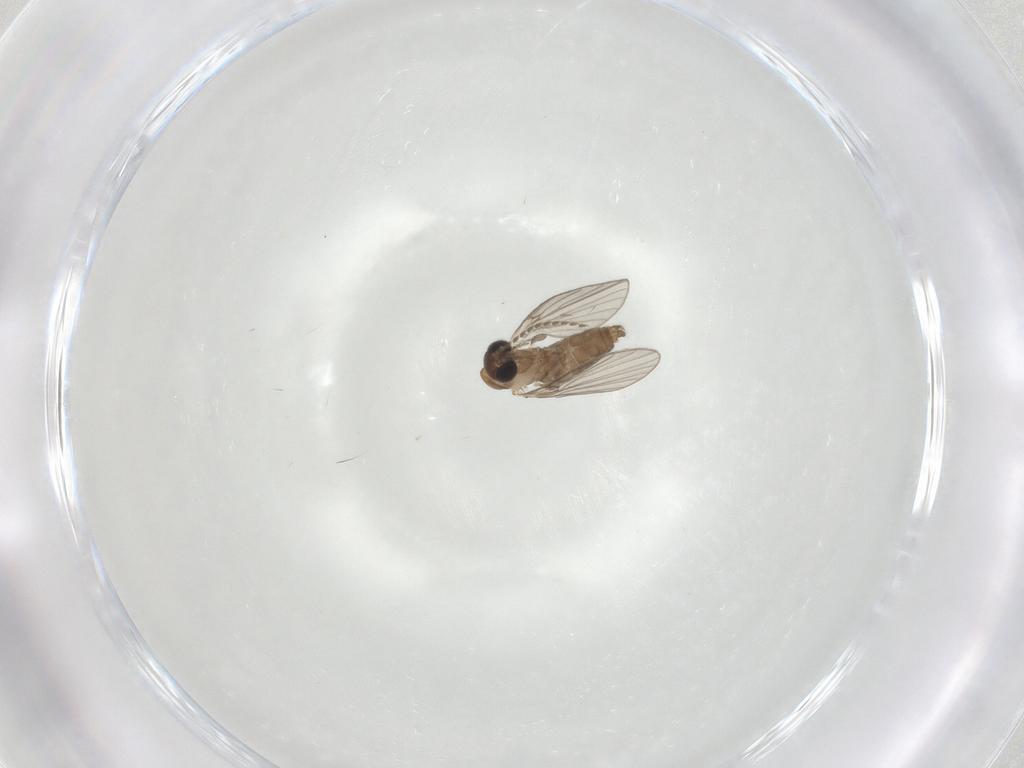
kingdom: Animalia
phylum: Arthropoda
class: Insecta
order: Diptera
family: Psychodidae
